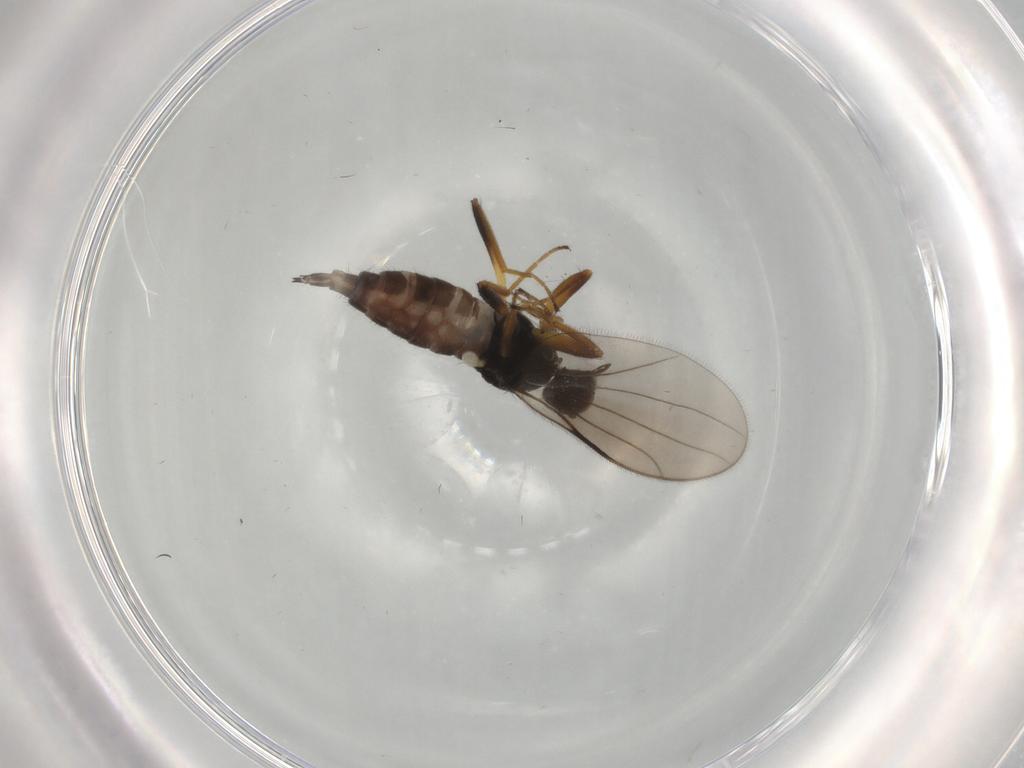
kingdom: Animalia
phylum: Arthropoda
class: Insecta
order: Diptera
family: Hybotidae
